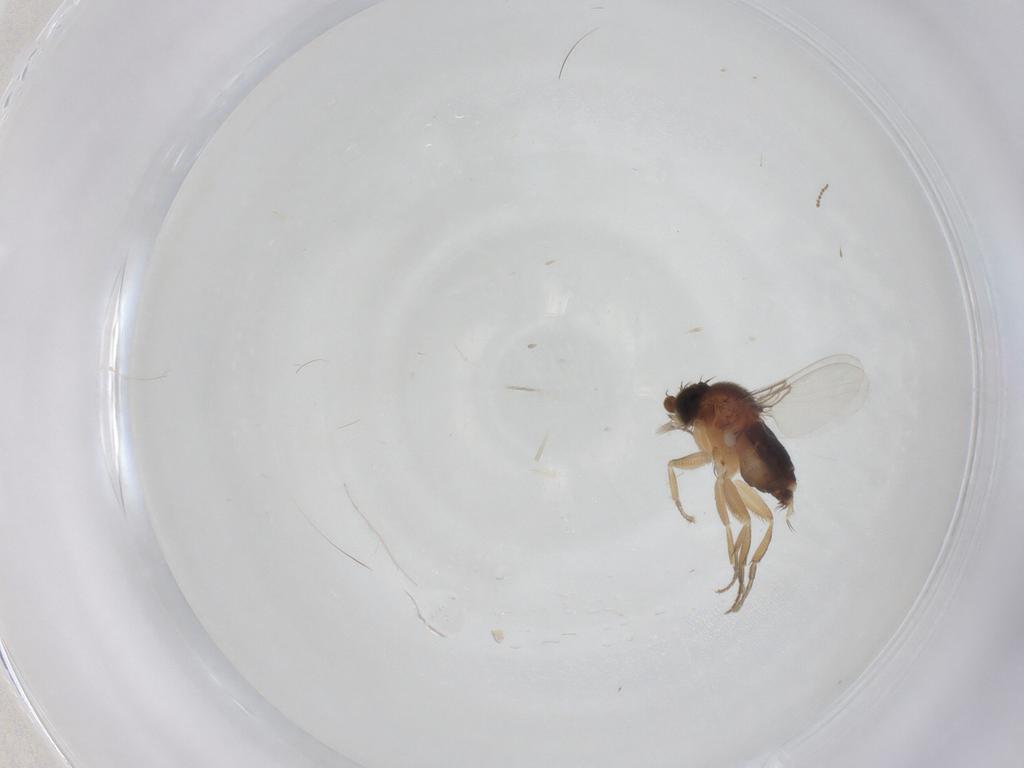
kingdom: Animalia
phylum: Arthropoda
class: Insecta
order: Diptera
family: Phoridae
